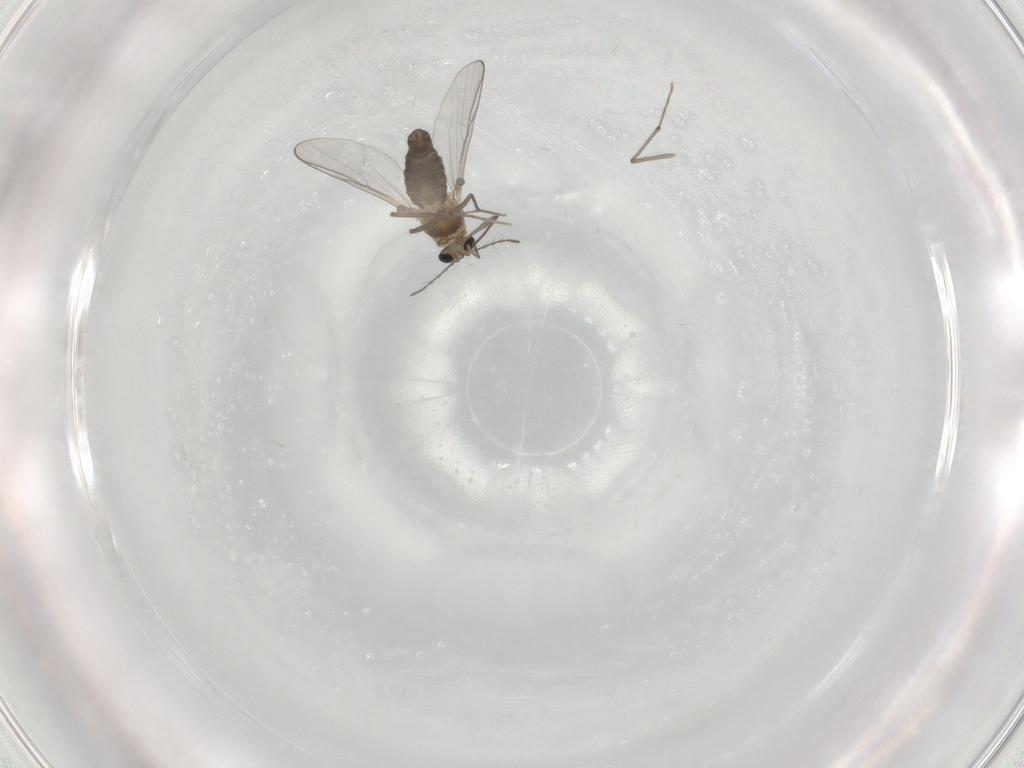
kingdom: Animalia
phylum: Arthropoda
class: Insecta
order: Diptera
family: Chironomidae
